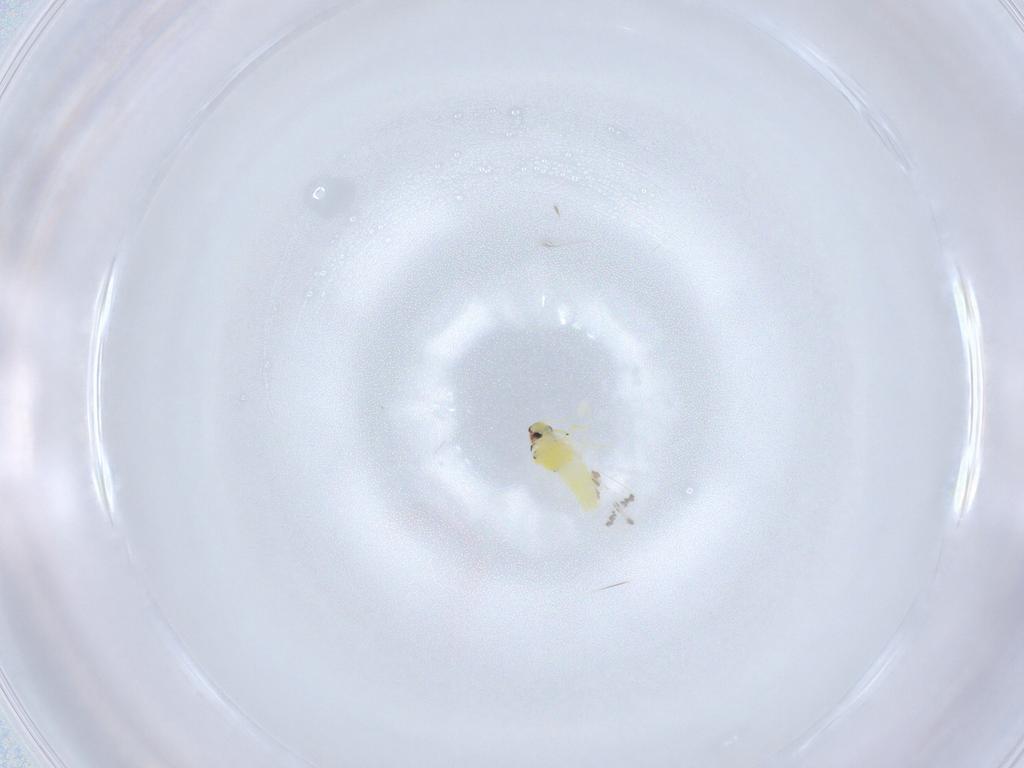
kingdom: Animalia
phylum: Arthropoda
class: Insecta
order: Hemiptera
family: Aleyrodidae
